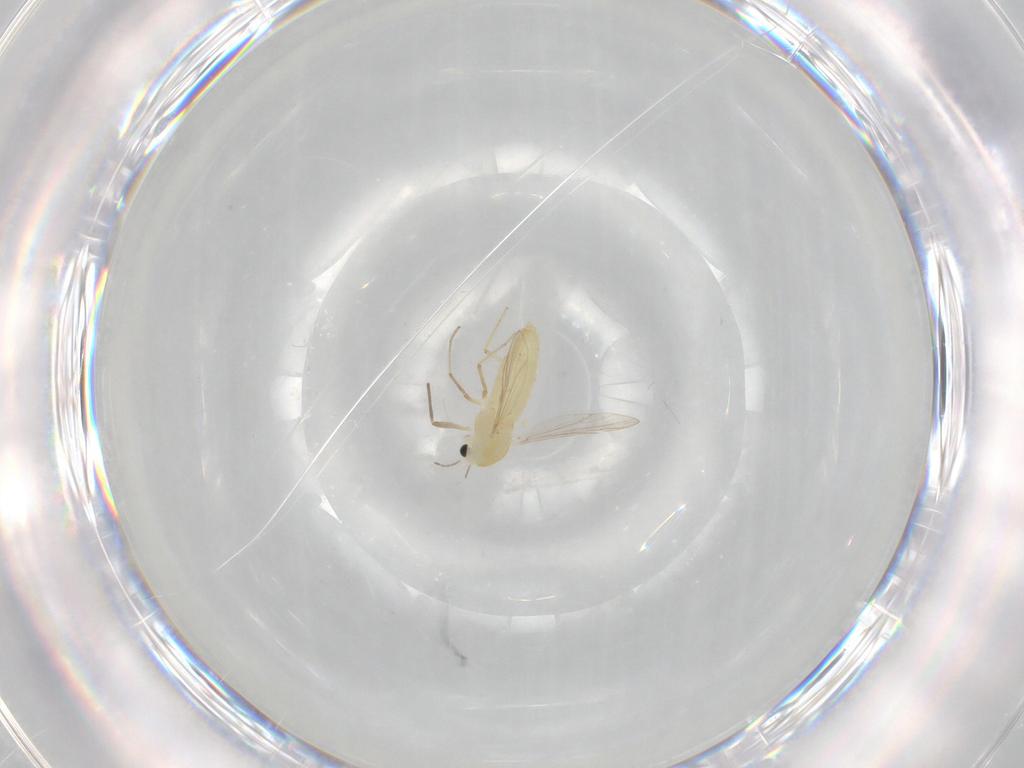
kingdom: Animalia
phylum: Arthropoda
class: Insecta
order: Diptera
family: Chironomidae
